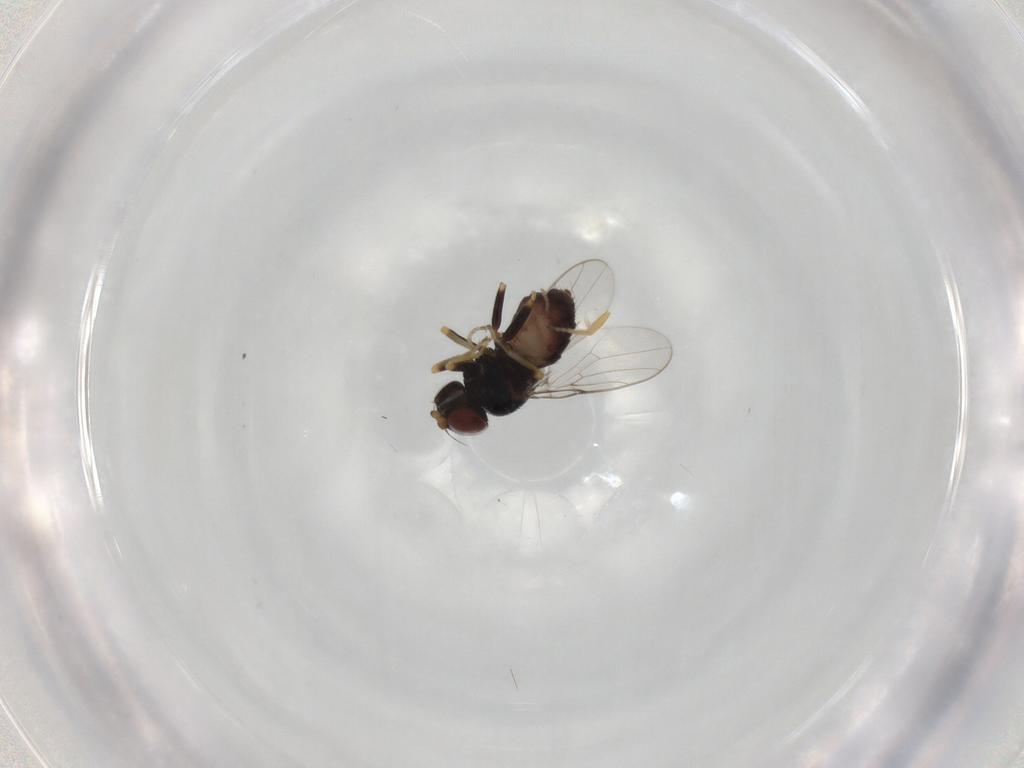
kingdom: Animalia
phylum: Arthropoda
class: Insecta
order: Diptera
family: Chloropidae
